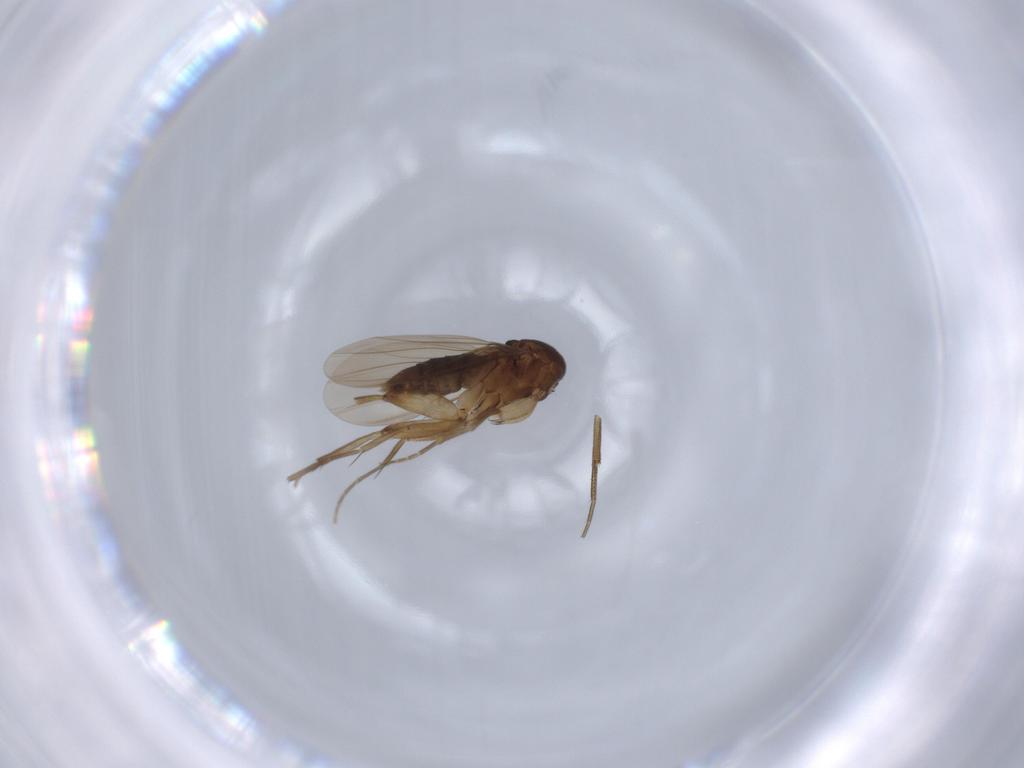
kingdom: Animalia
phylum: Arthropoda
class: Insecta
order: Diptera
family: Phoridae
